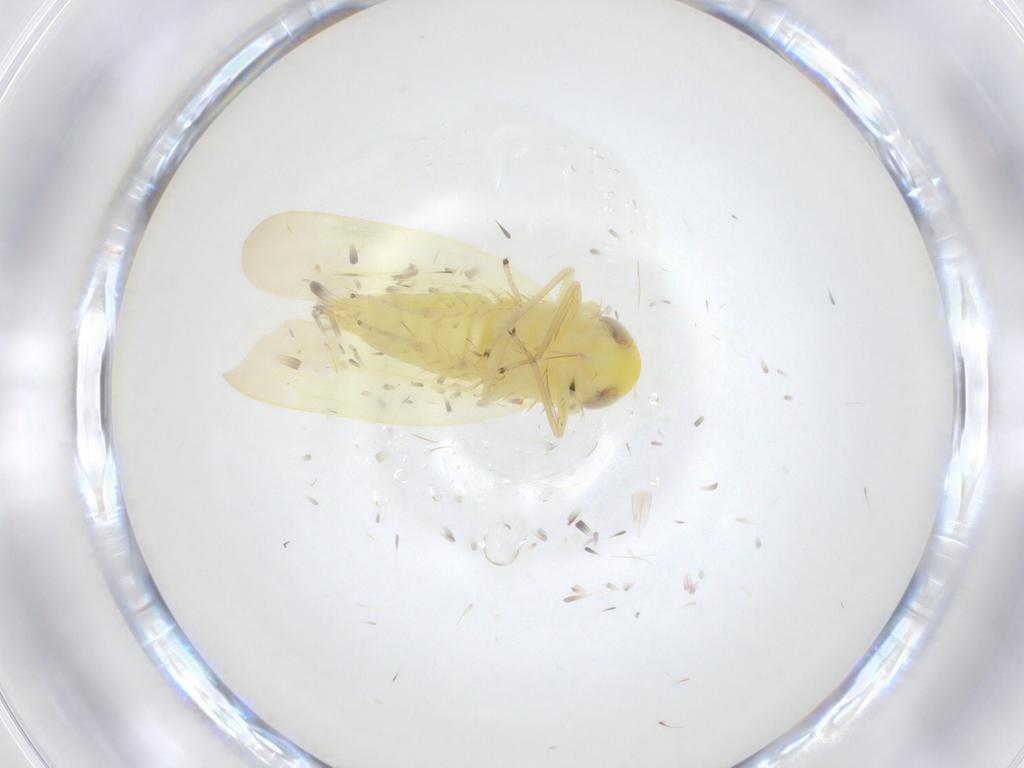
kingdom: Animalia
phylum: Arthropoda
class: Insecta
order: Hemiptera
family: Cicadellidae
